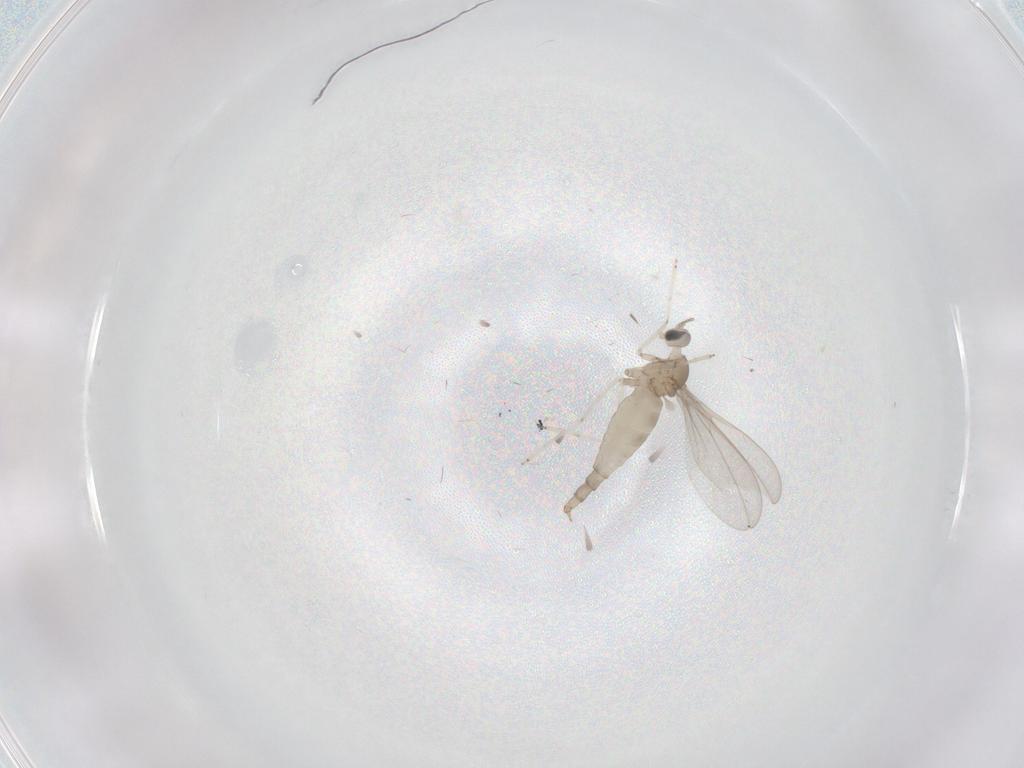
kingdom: Animalia
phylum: Arthropoda
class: Insecta
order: Diptera
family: Cecidomyiidae
